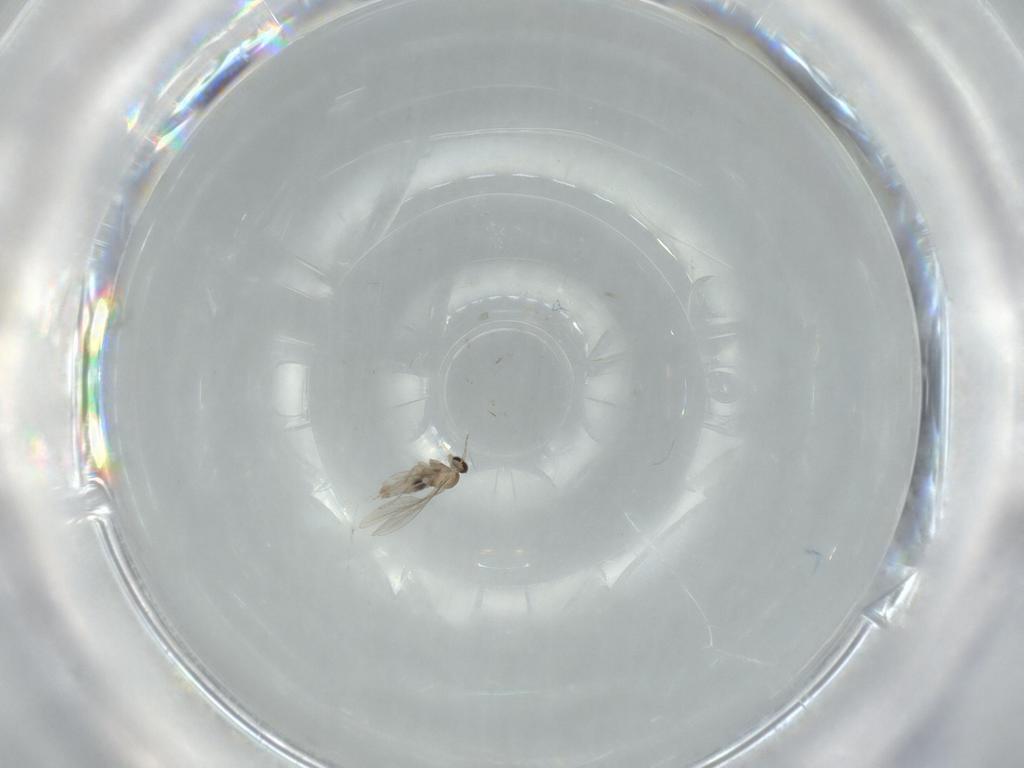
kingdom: Animalia
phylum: Arthropoda
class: Insecta
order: Diptera
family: Cecidomyiidae
